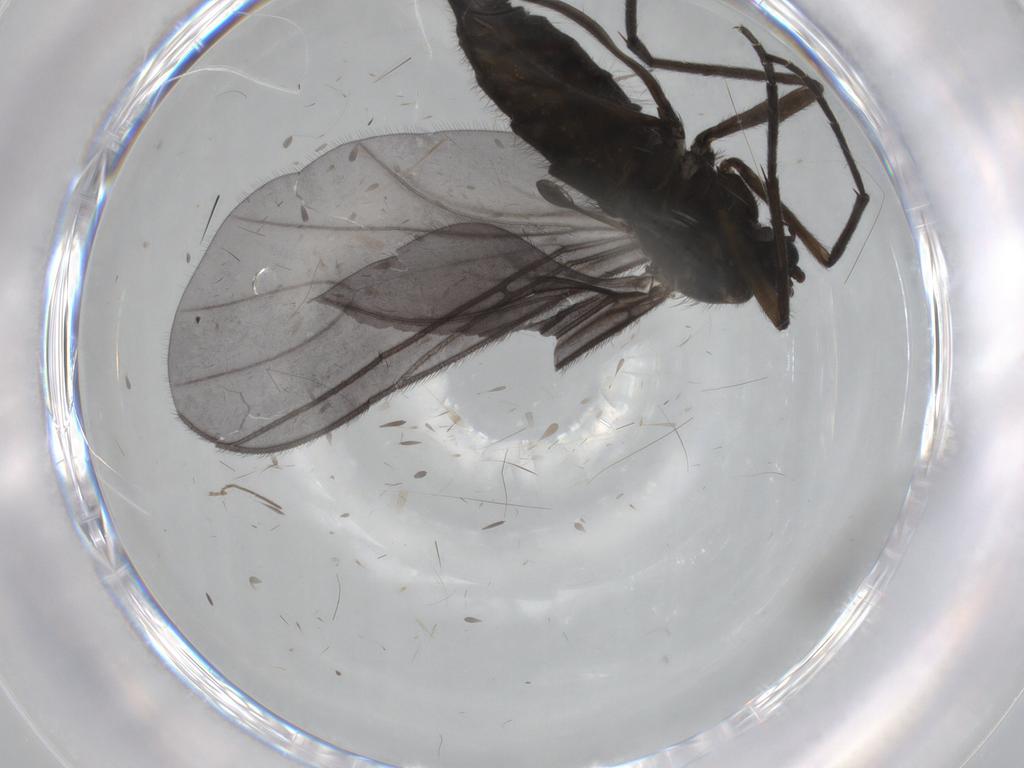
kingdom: Animalia
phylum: Arthropoda
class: Insecta
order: Diptera
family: Sciaridae
